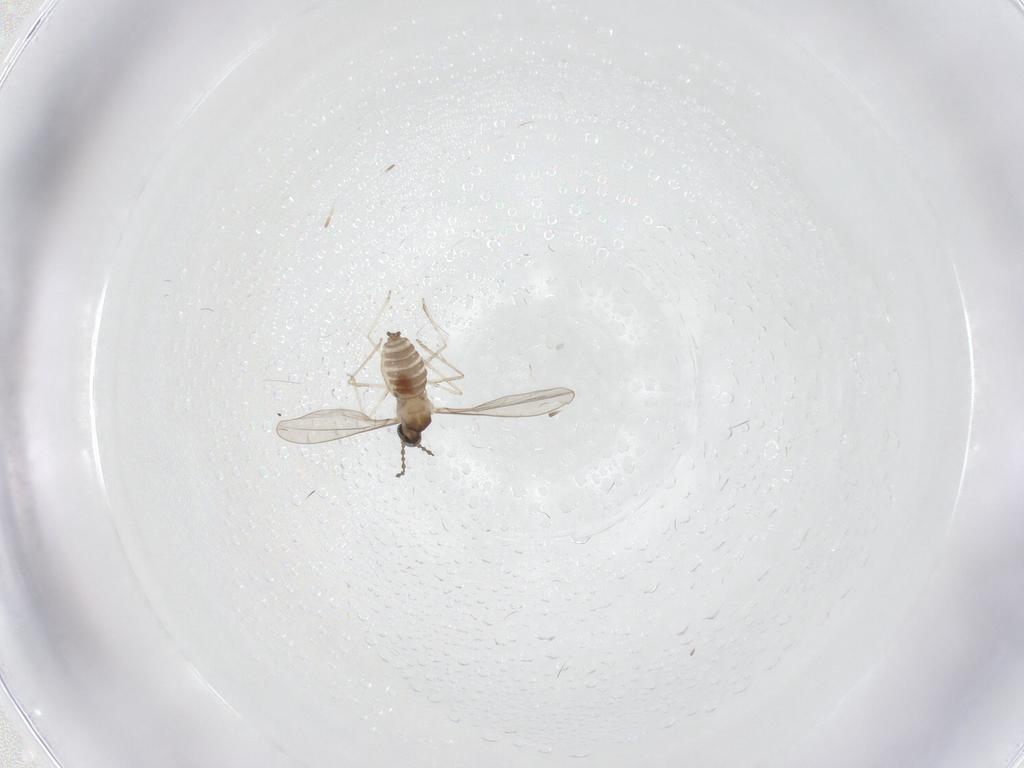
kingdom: Animalia
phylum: Arthropoda
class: Insecta
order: Diptera
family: Cecidomyiidae
